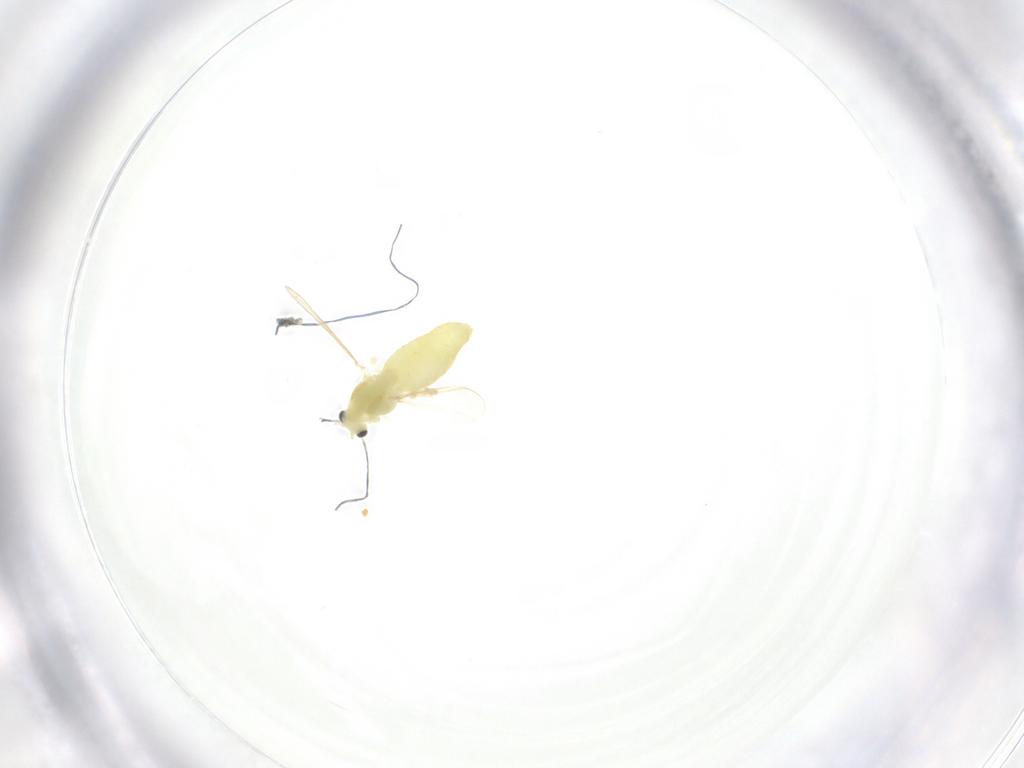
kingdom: Animalia
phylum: Arthropoda
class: Insecta
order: Diptera
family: Chironomidae
